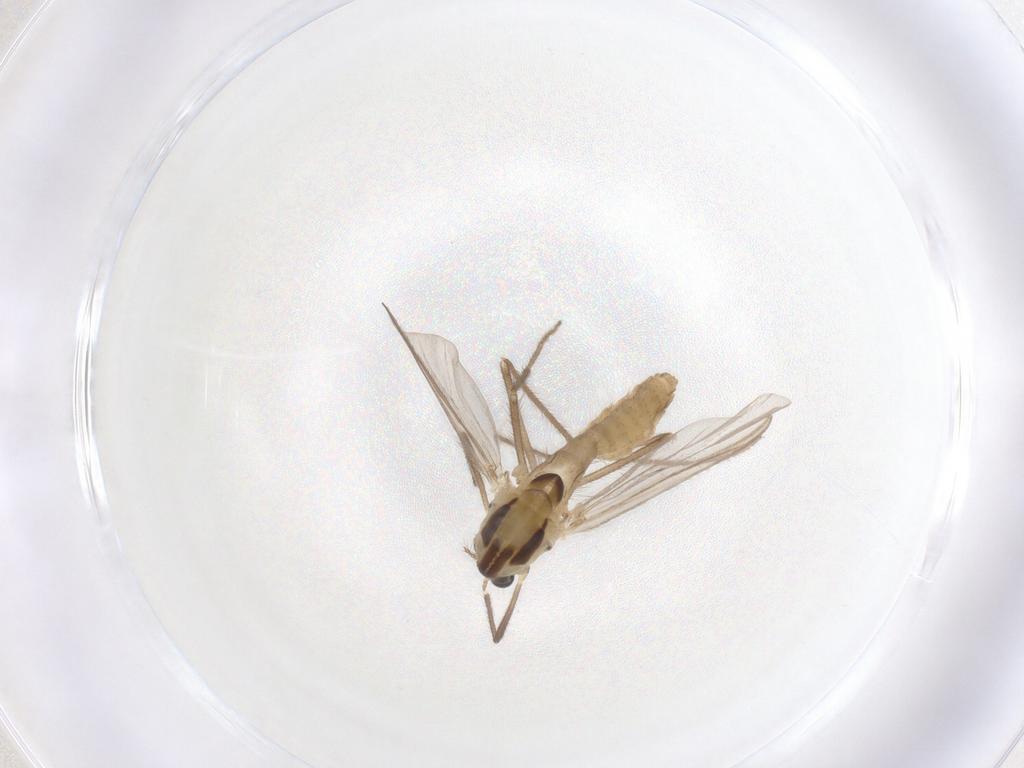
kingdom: Animalia
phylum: Arthropoda
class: Insecta
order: Diptera
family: Chironomidae
